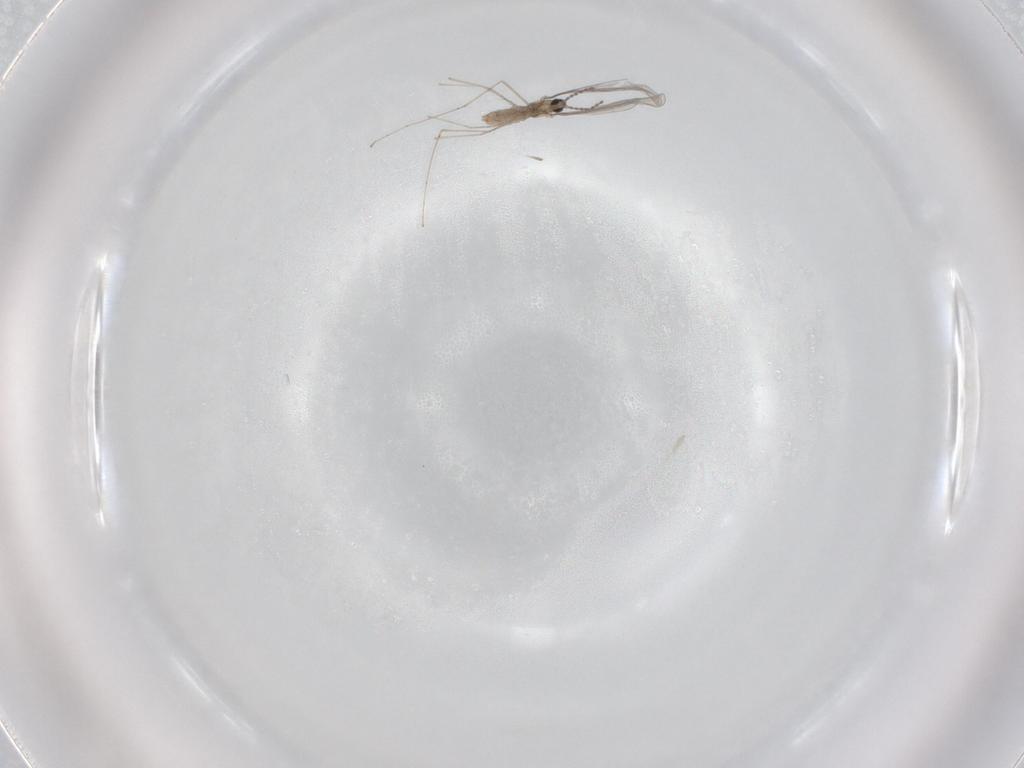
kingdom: Animalia
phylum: Arthropoda
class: Insecta
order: Diptera
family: Cecidomyiidae
